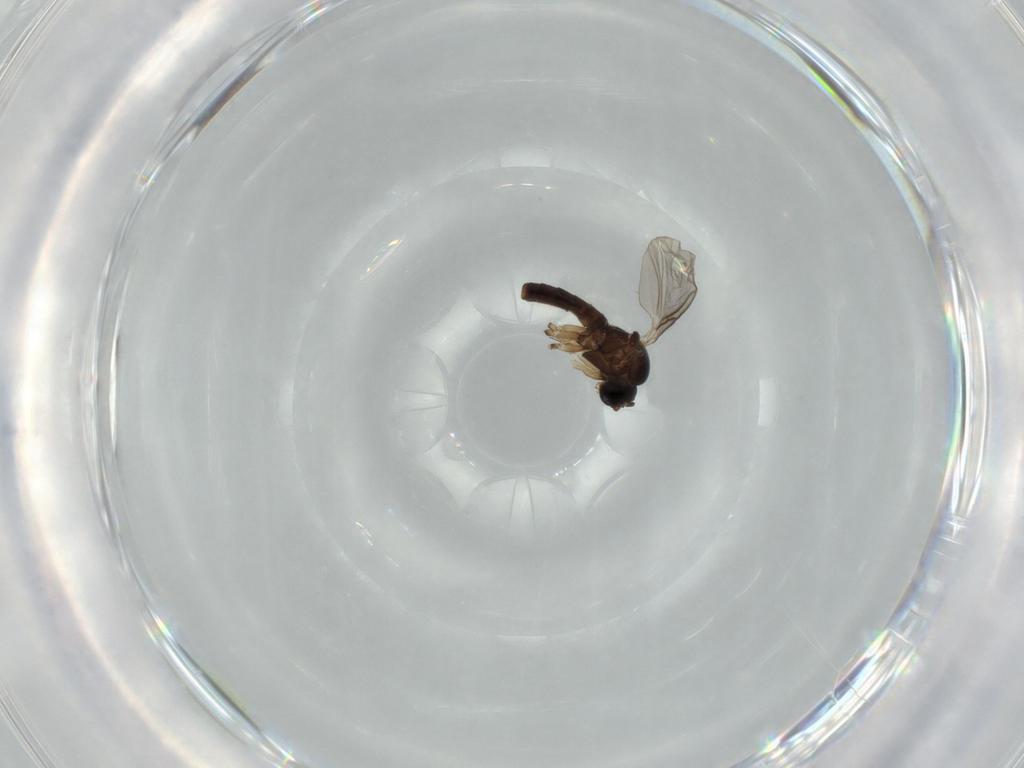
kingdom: Animalia
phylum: Arthropoda
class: Insecta
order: Diptera
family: Sciaridae
